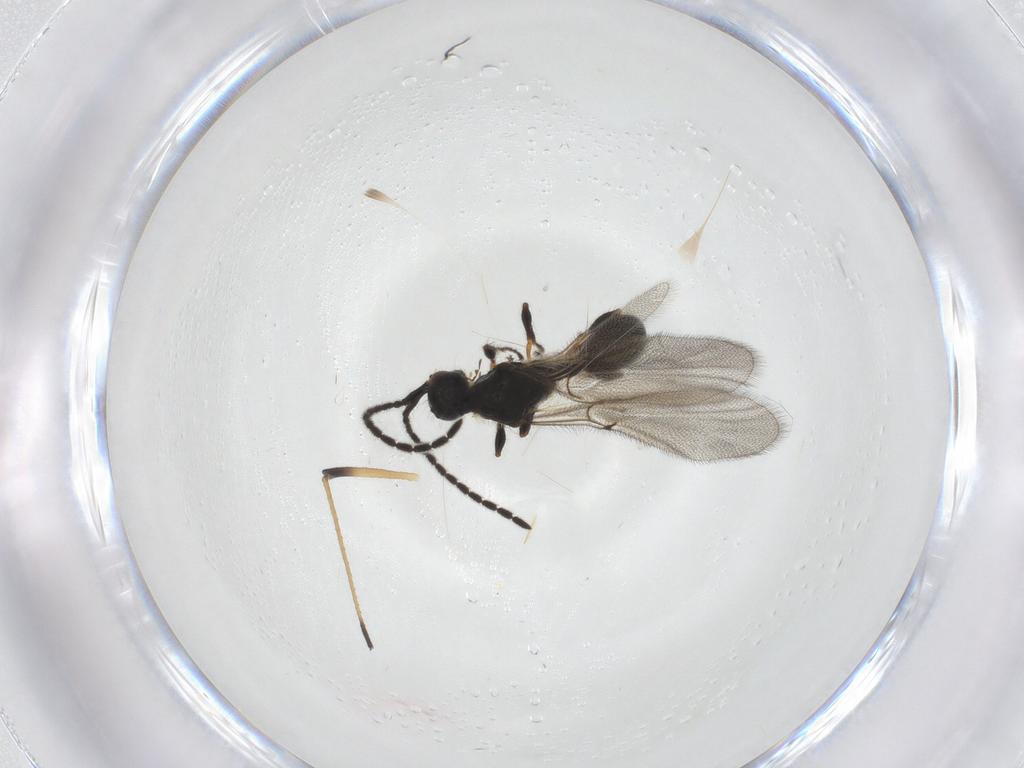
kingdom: Animalia
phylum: Arthropoda
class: Insecta
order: Hymenoptera
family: Diapriidae
